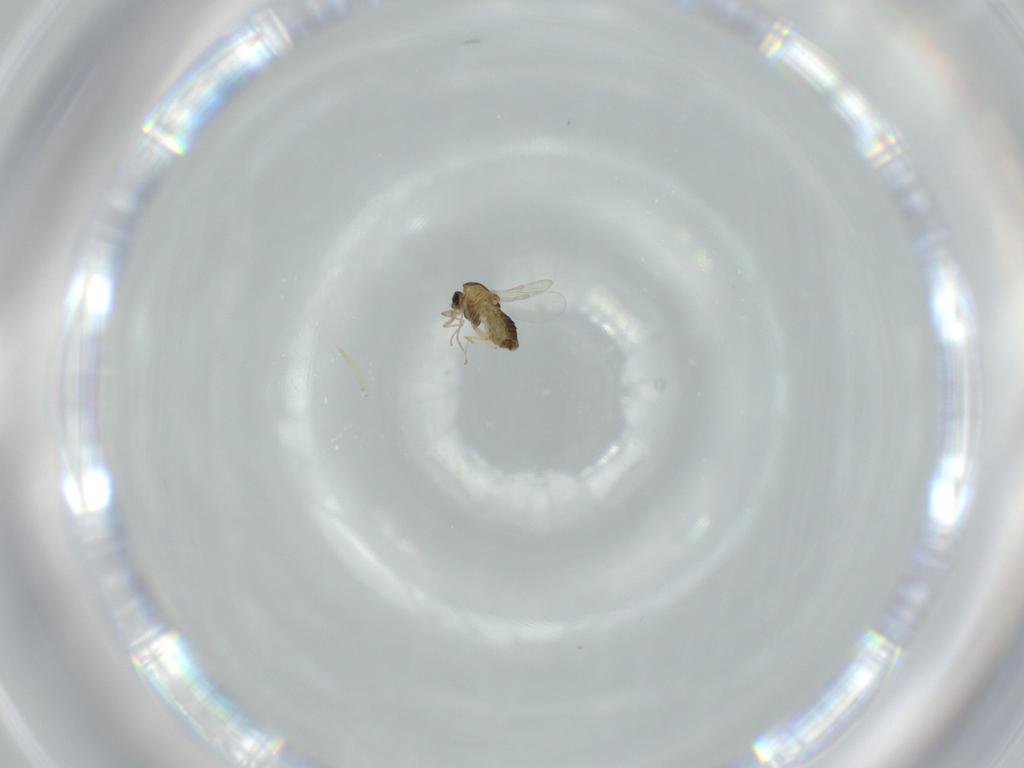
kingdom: Animalia
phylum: Arthropoda
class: Insecta
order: Diptera
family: Chironomidae
